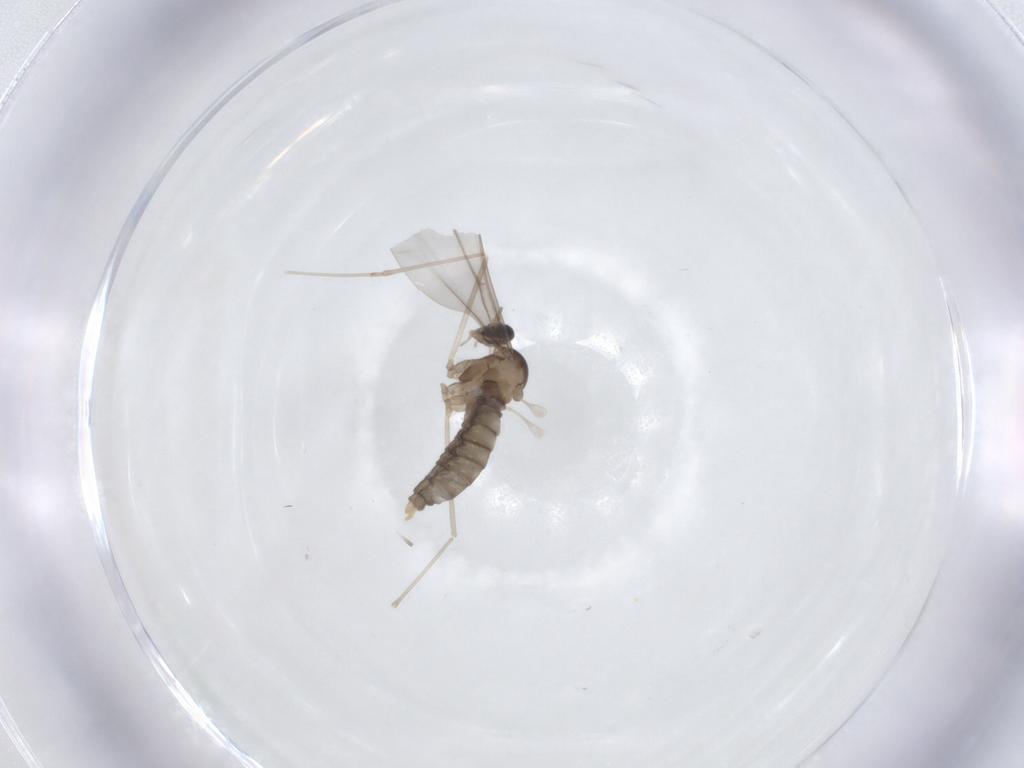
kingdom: Animalia
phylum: Arthropoda
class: Insecta
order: Diptera
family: Cecidomyiidae
